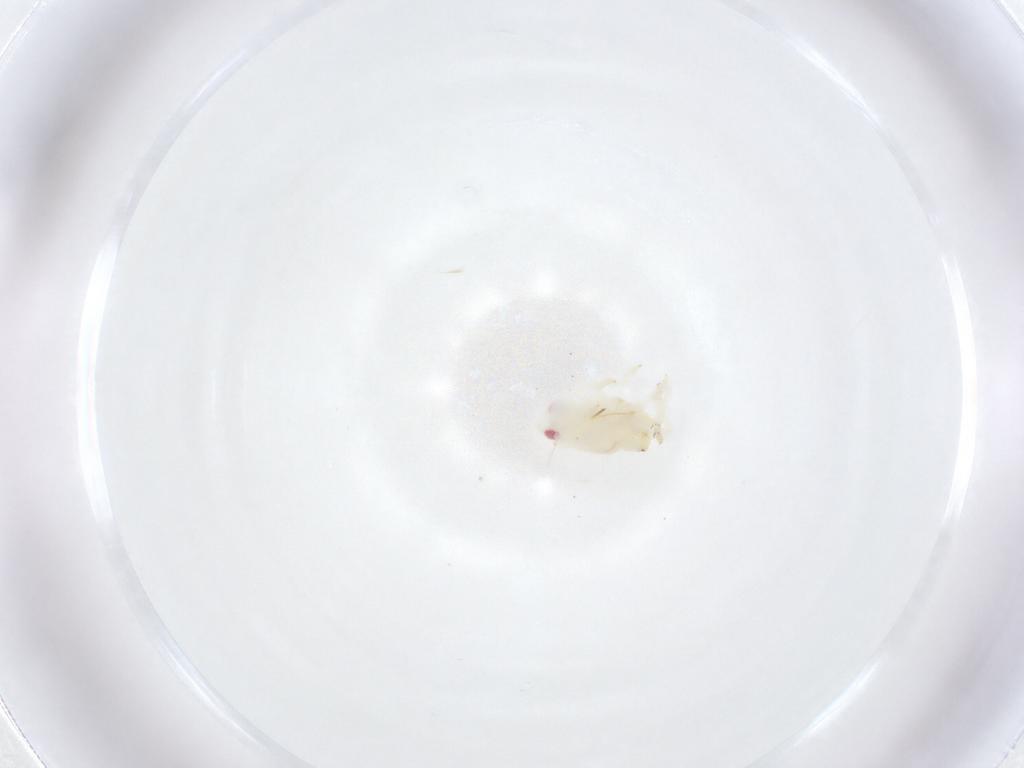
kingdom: Animalia
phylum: Arthropoda
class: Insecta
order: Hemiptera
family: Flatidae
